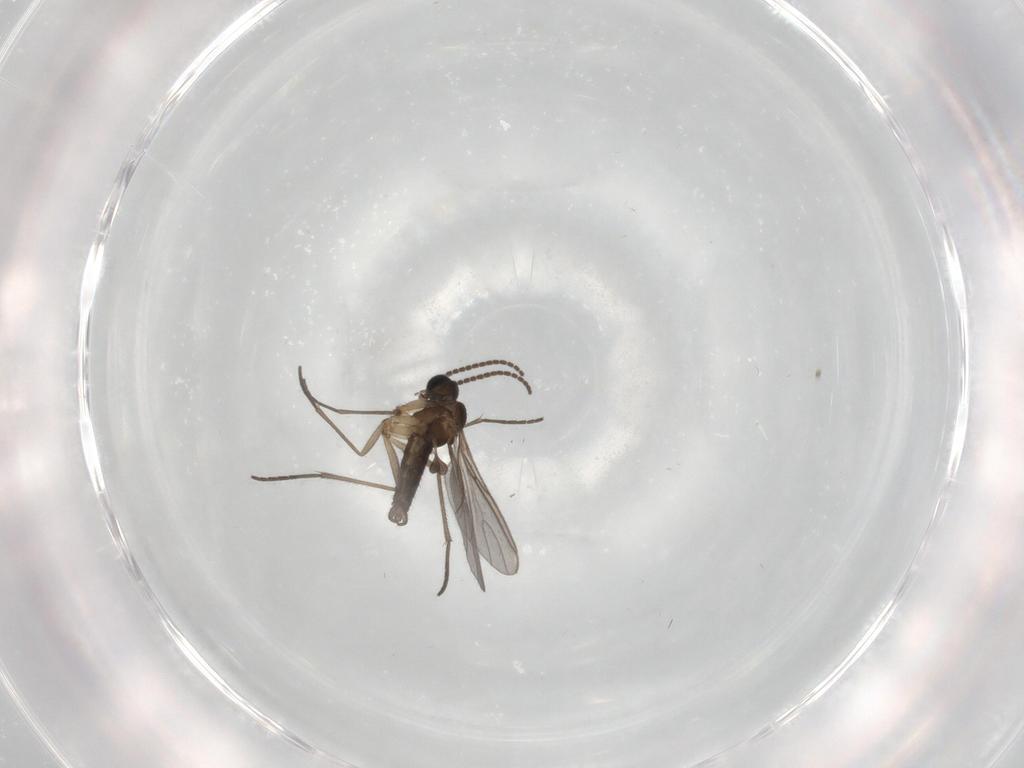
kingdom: Animalia
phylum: Arthropoda
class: Insecta
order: Diptera
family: Sciaridae
